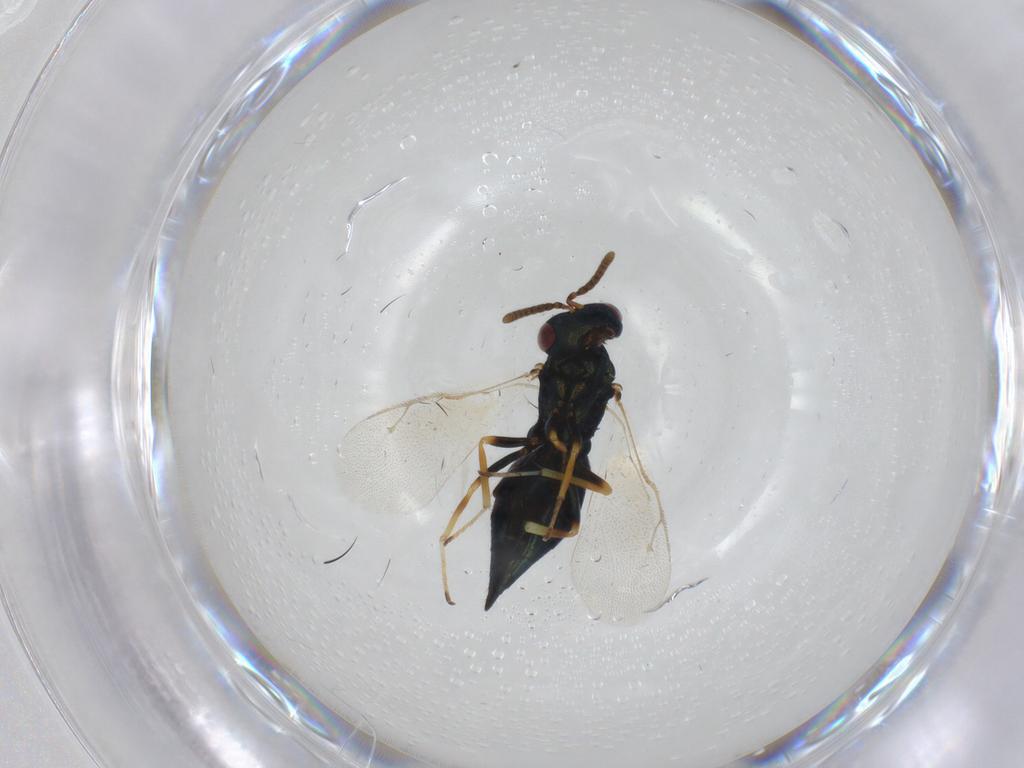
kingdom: Animalia
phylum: Arthropoda
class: Insecta
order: Hymenoptera
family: Pteromalidae
